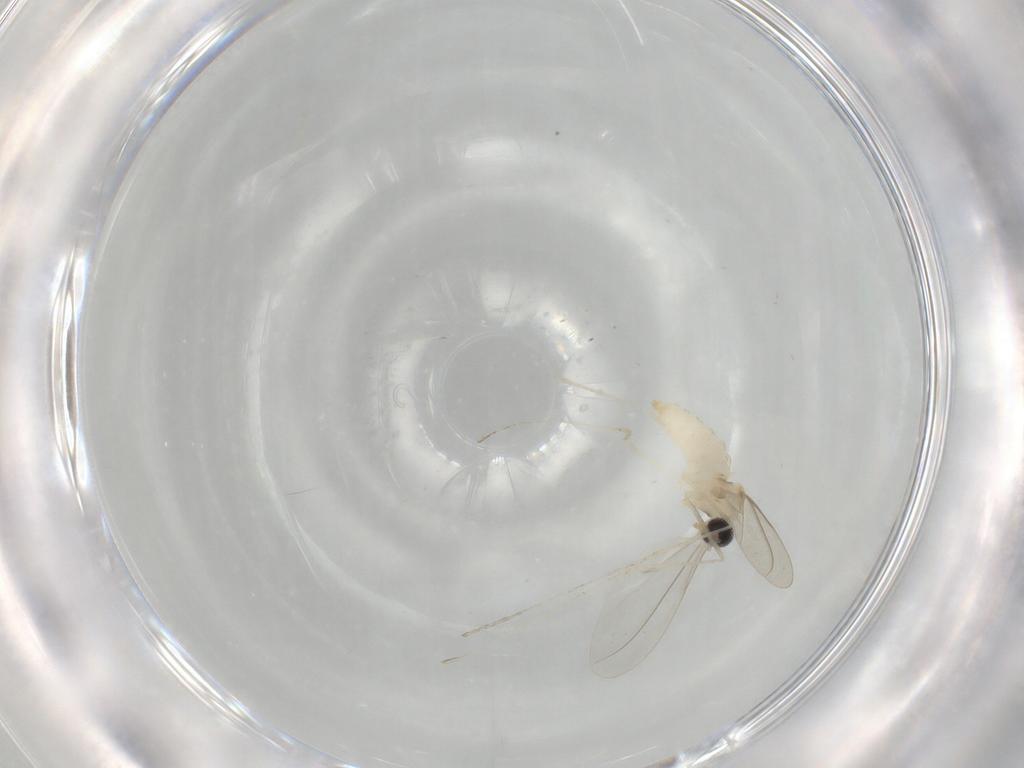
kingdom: Animalia
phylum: Arthropoda
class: Insecta
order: Diptera
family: Cecidomyiidae
